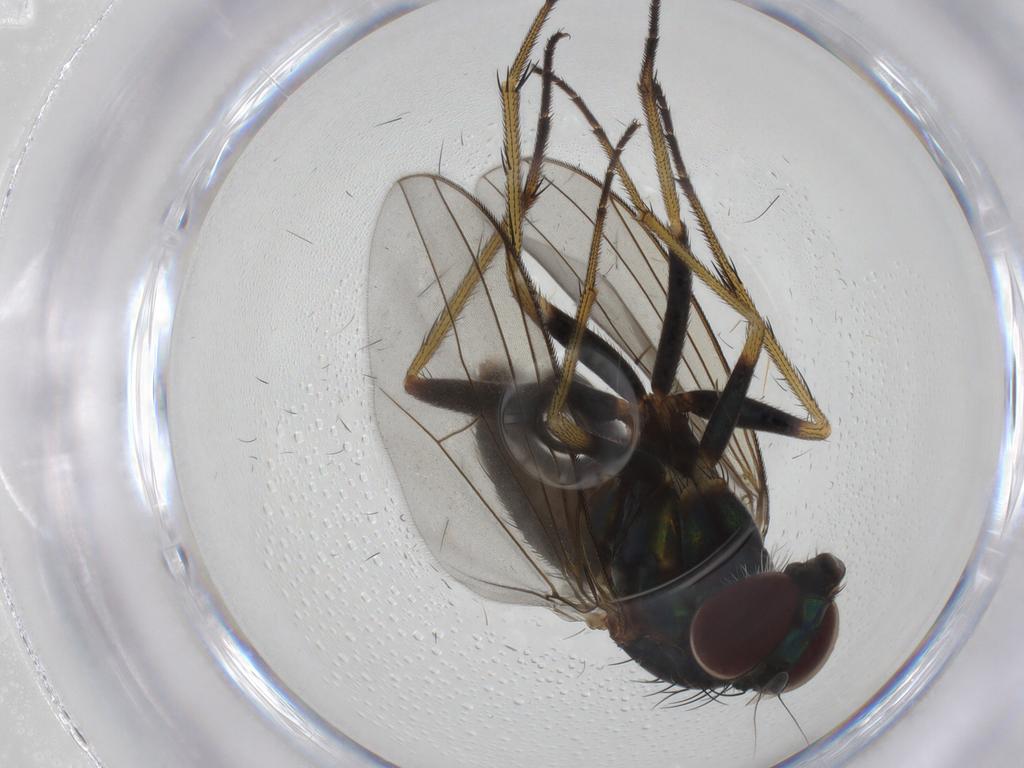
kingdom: Animalia
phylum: Arthropoda
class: Insecta
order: Diptera
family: Dolichopodidae
